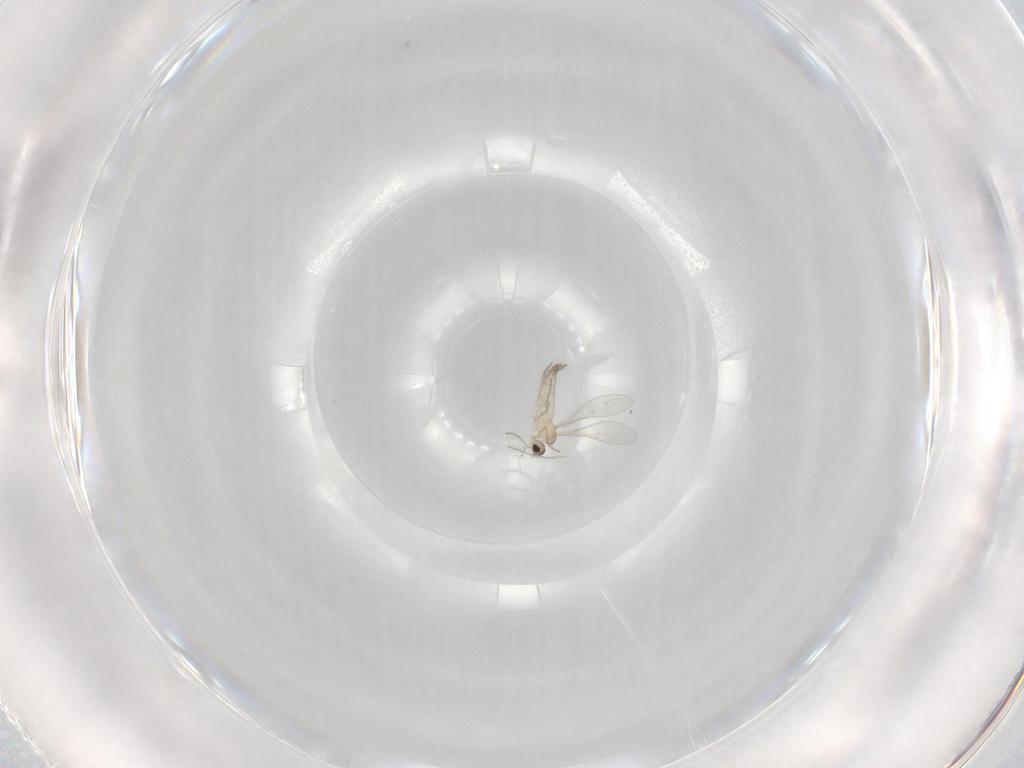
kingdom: Animalia
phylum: Arthropoda
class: Insecta
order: Diptera
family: Cecidomyiidae
